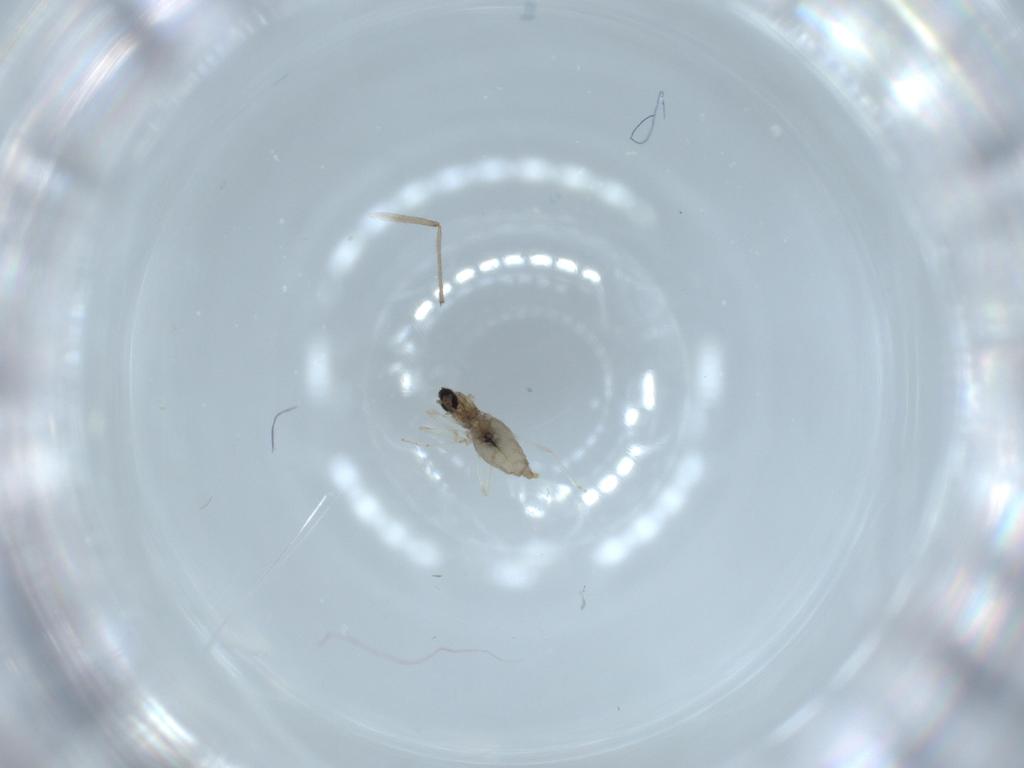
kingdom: Animalia
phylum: Arthropoda
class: Insecta
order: Diptera
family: Cecidomyiidae
